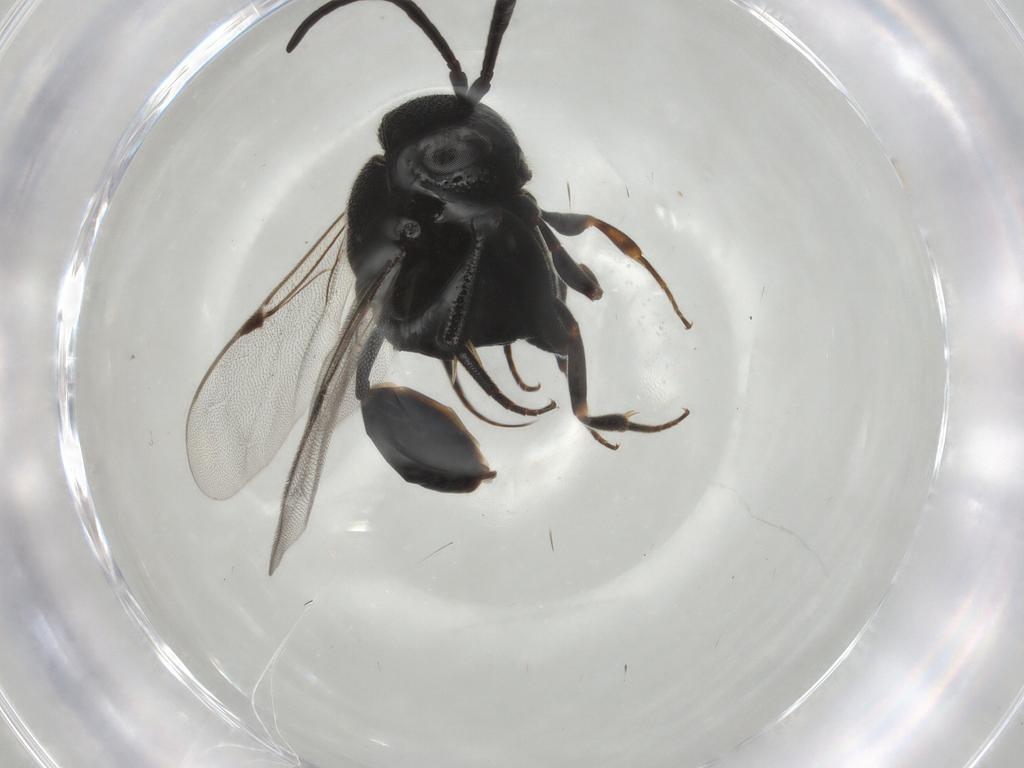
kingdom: Animalia
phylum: Arthropoda
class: Insecta
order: Hymenoptera
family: Evaniidae
